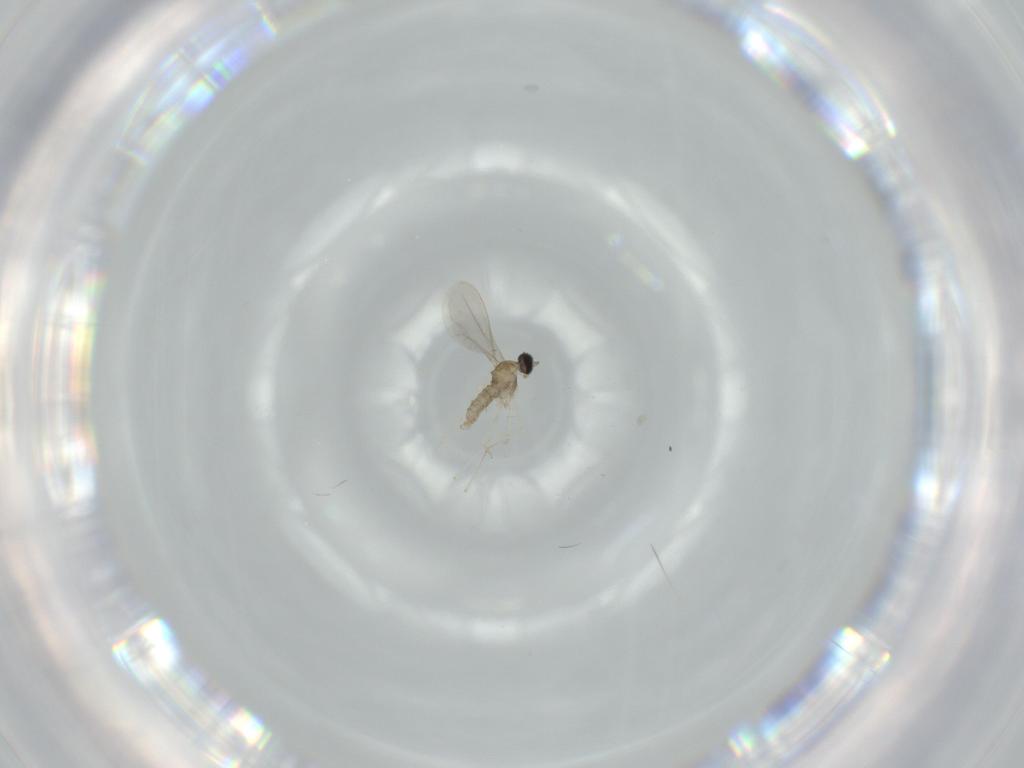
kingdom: Animalia
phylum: Arthropoda
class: Insecta
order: Diptera
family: Cecidomyiidae
